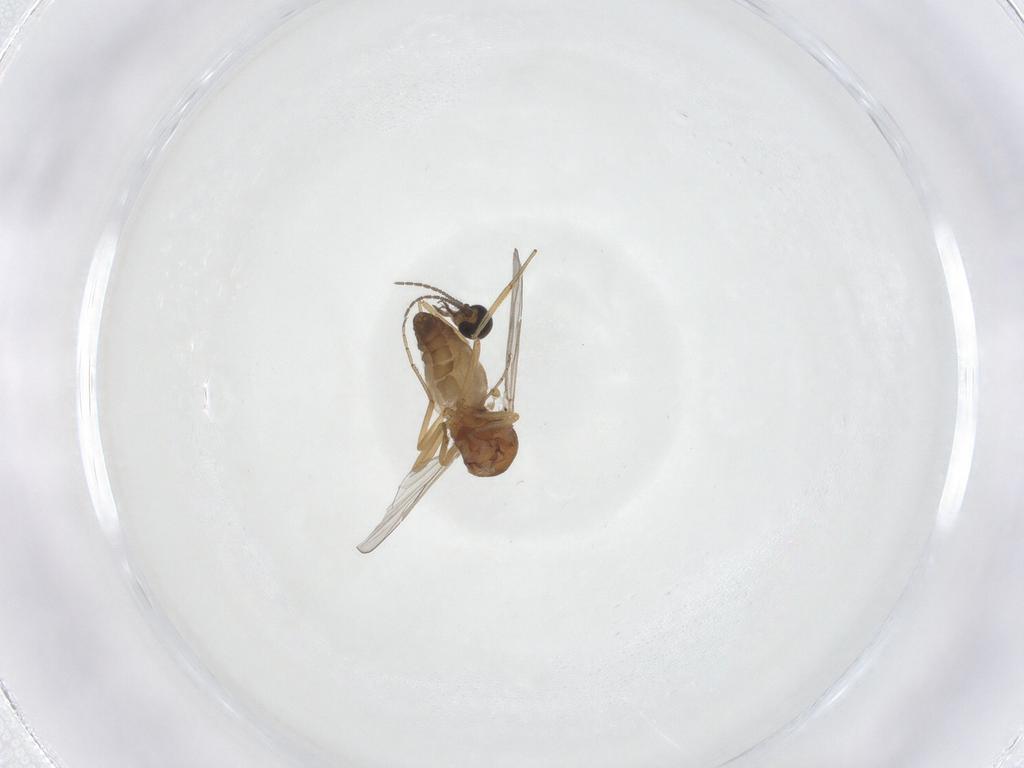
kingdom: Animalia
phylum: Arthropoda
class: Insecta
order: Diptera
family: Ceratopogonidae
